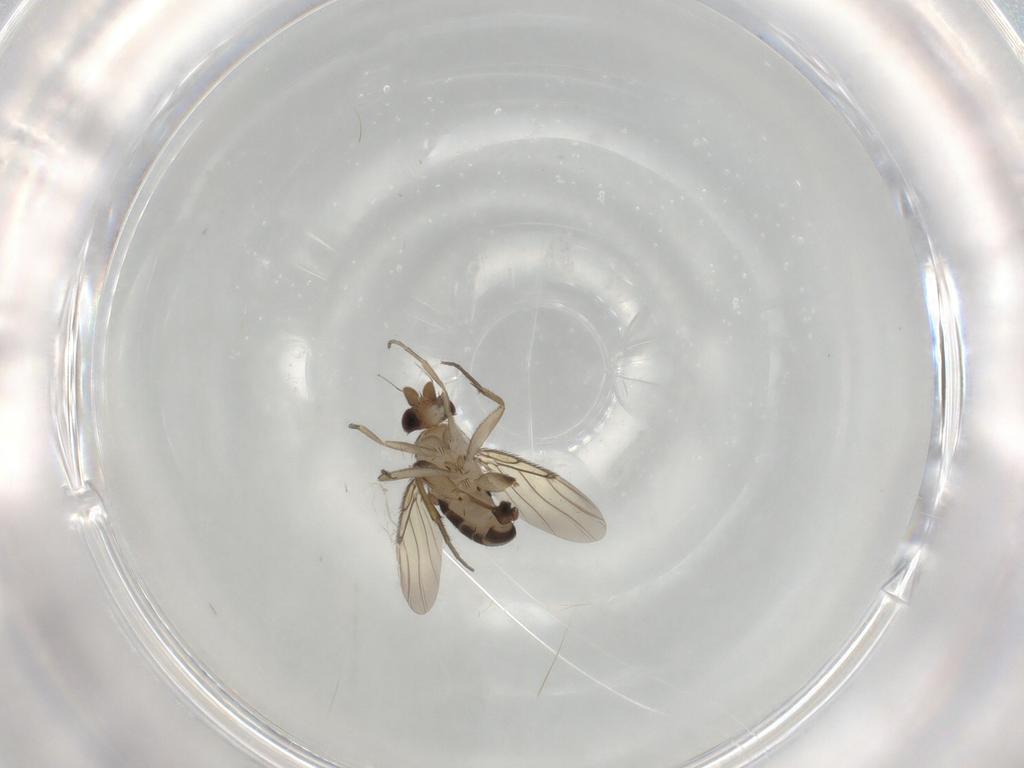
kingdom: Animalia
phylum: Arthropoda
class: Insecta
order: Diptera
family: Phoridae
